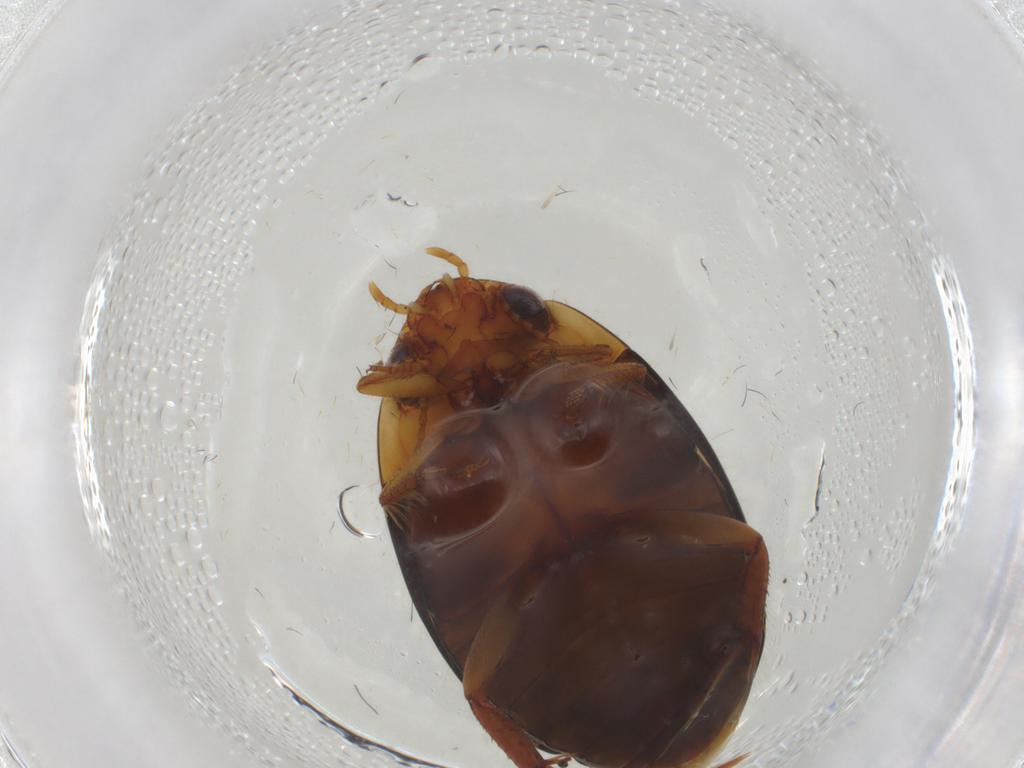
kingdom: Animalia
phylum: Arthropoda
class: Insecta
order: Coleoptera
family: Dytiscidae
